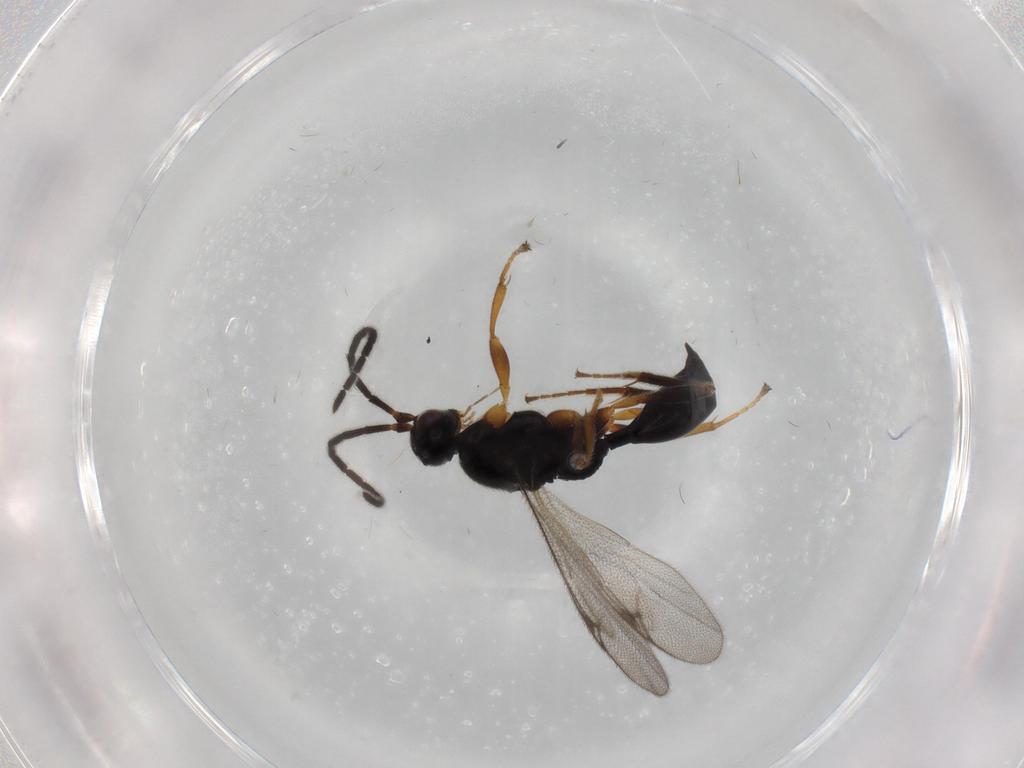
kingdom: Animalia
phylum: Arthropoda
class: Insecta
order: Hymenoptera
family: Proctotrupidae
